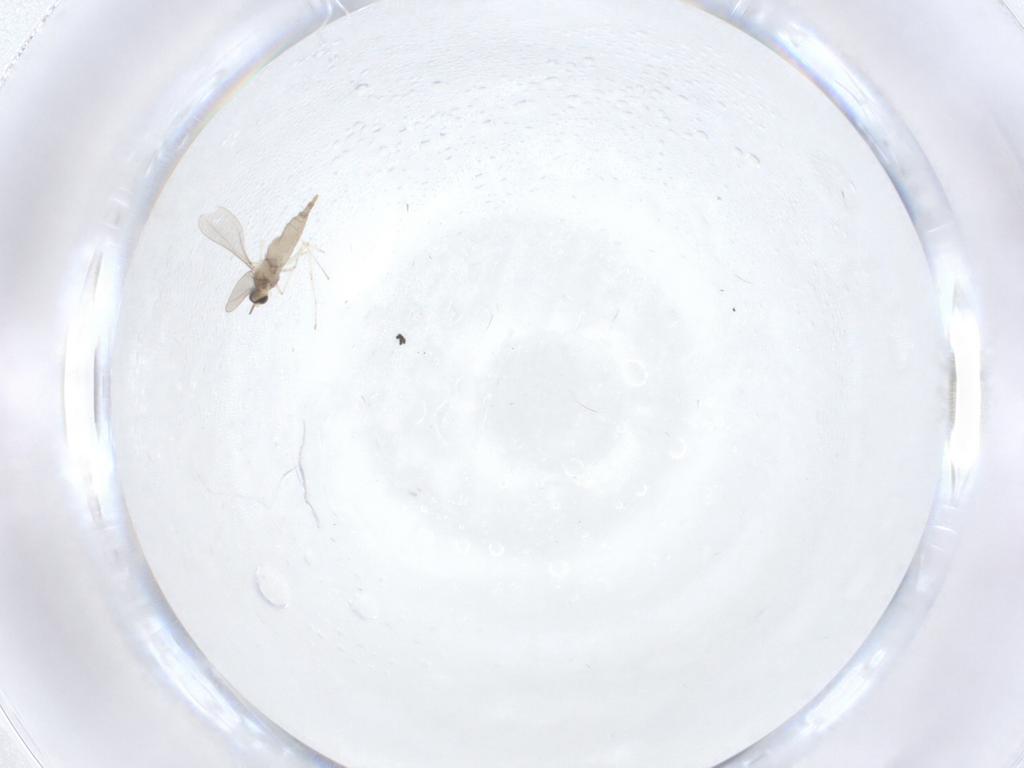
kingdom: Animalia
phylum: Arthropoda
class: Insecta
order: Diptera
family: Cecidomyiidae
